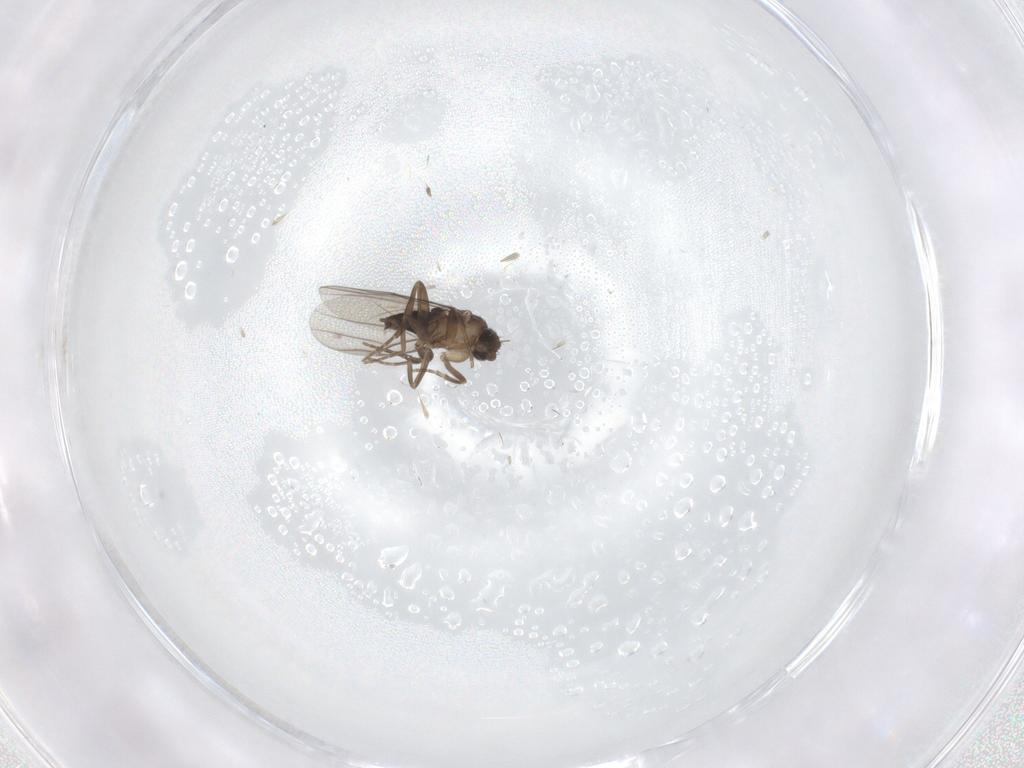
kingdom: Animalia
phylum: Arthropoda
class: Insecta
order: Diptera
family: Phoridae
